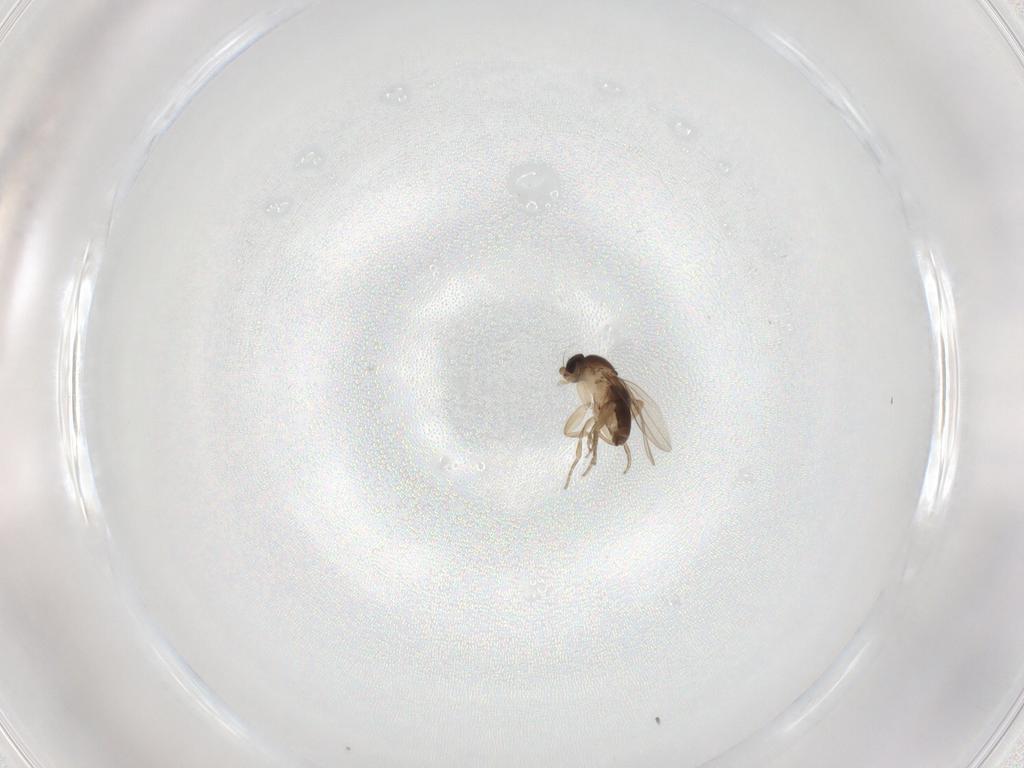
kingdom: Animalia
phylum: Arthropoda
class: Insecta
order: Diptera
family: Phoridae
